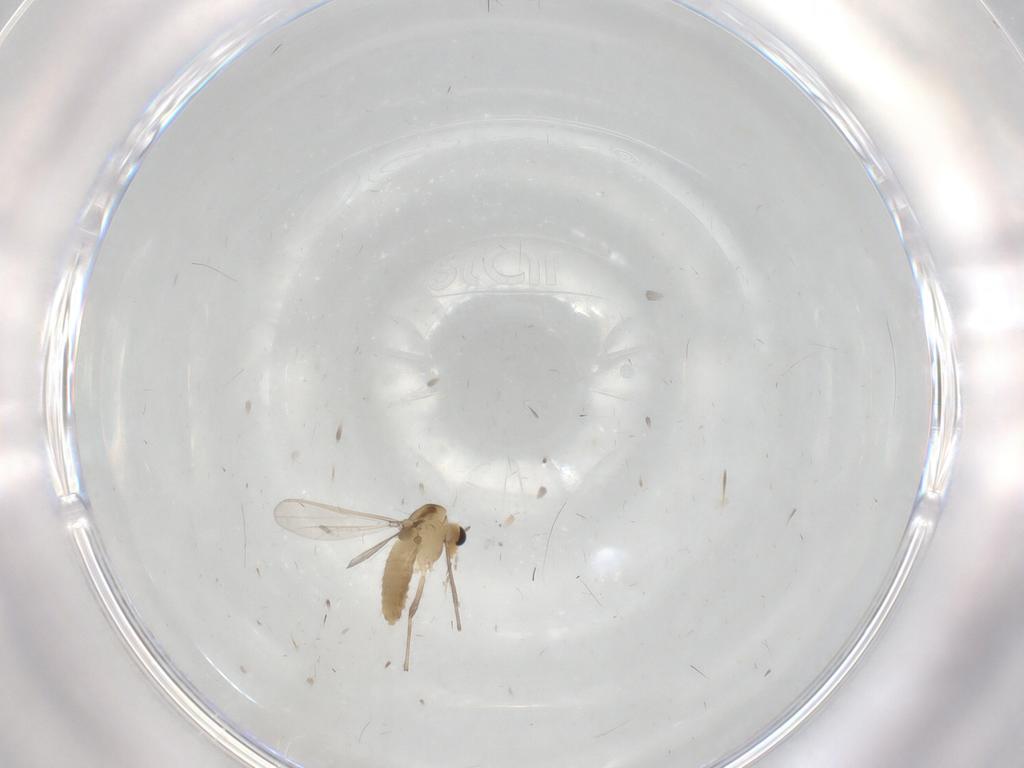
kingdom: Animalia
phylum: Arthropoda
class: Insecta
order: Diptera
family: Chironomidae
